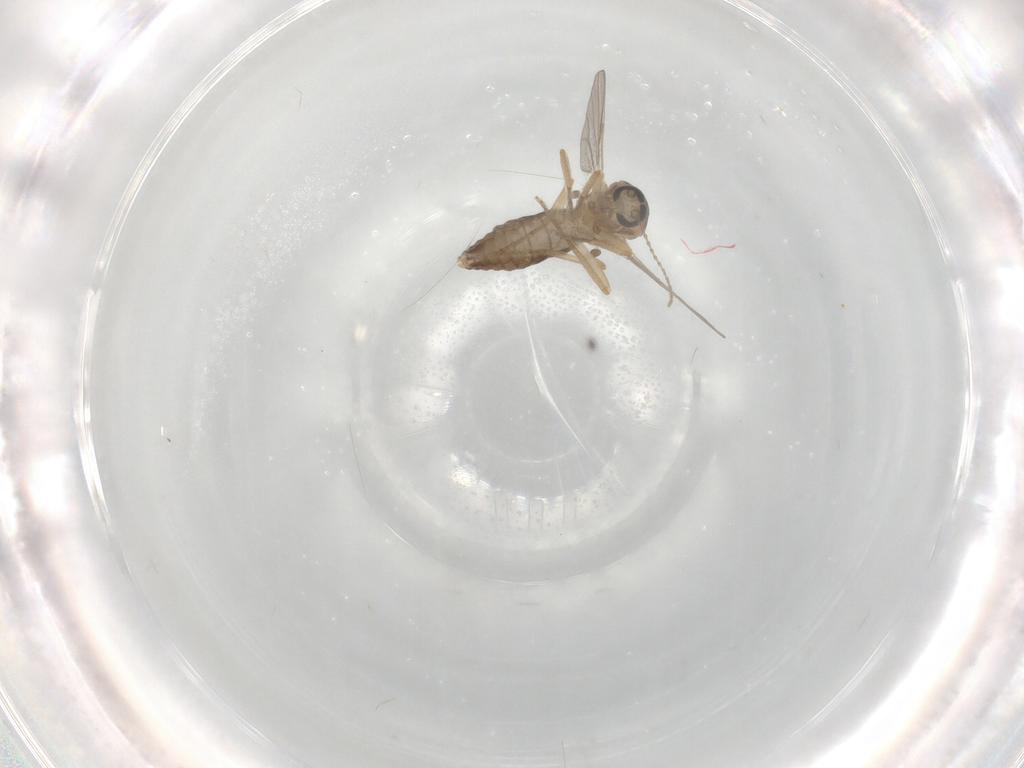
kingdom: Animalia
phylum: Arthropoda
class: Insecta
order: Diptera
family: Ceratopogonidae
